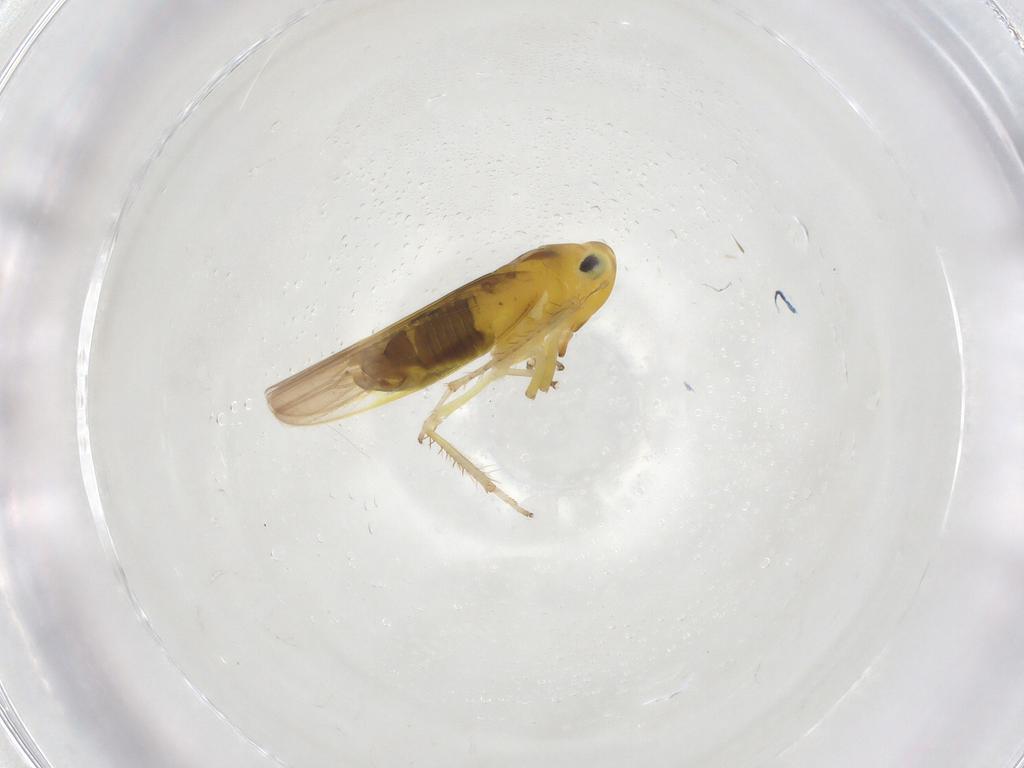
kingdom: Animalia
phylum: Arthropoda
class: Insecta
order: Hemiptera
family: Cicadellidae
